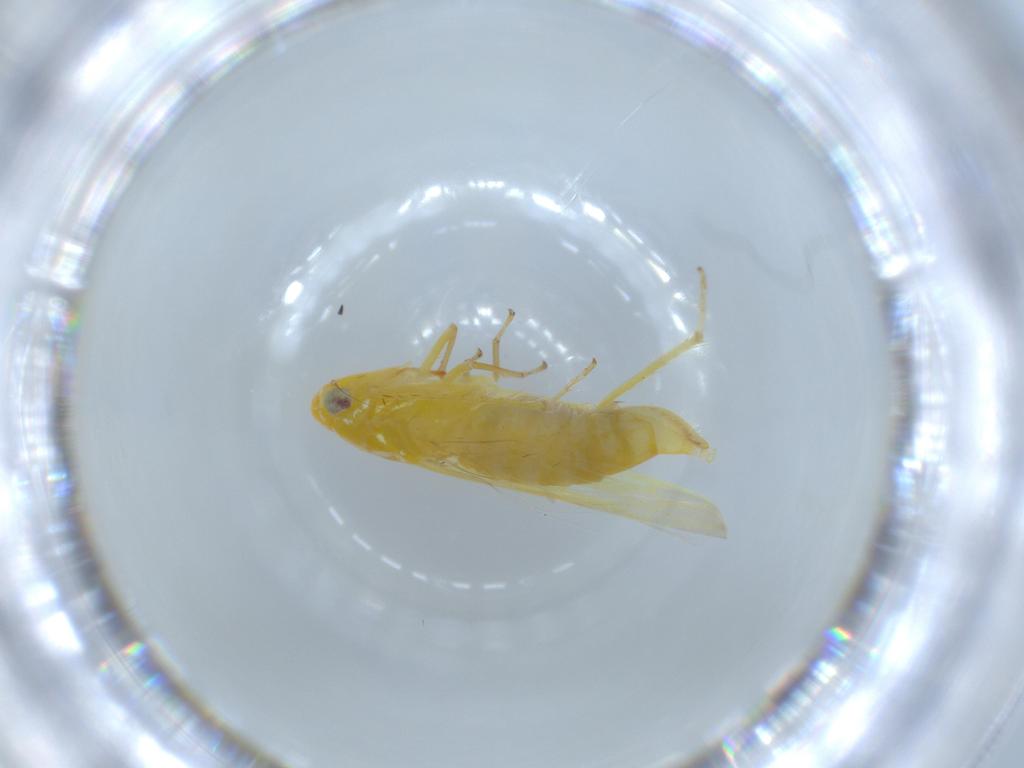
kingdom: Animalia
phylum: Arthropoda
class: Insecta
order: Hemiptera
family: Cicadellidae
